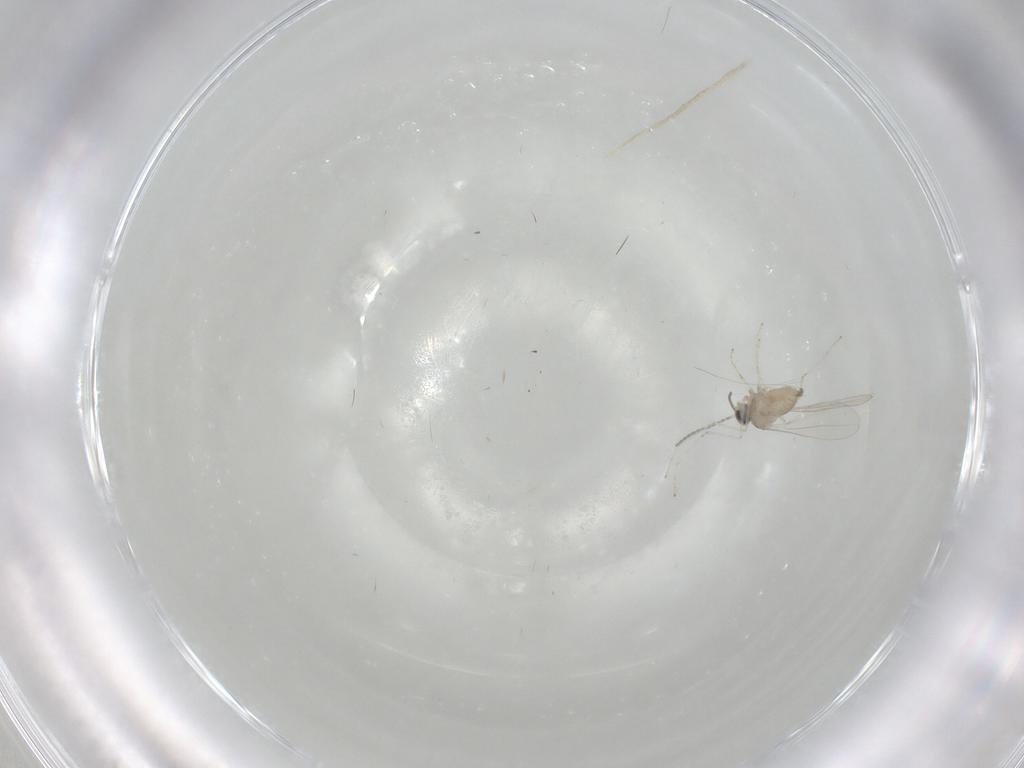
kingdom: Animalia
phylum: Arthropoda
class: Insecta
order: Diptera
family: Cecidomyiidae
